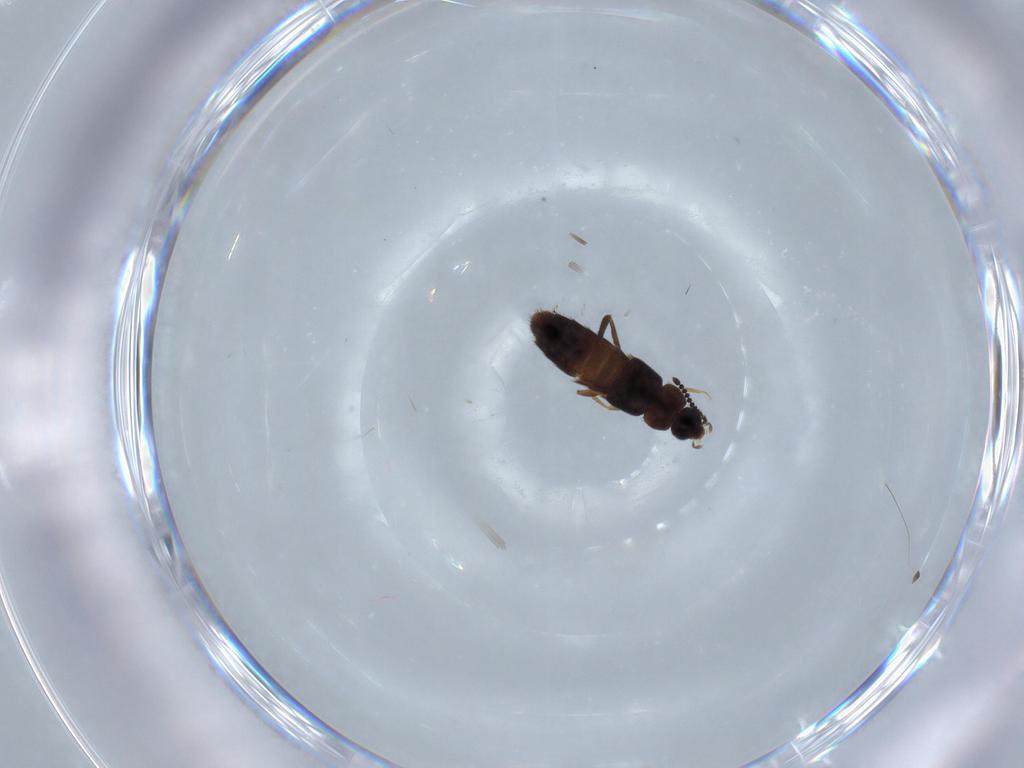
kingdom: Animalia
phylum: Arthropoda
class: Insecta
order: Coleoptera
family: Staphylinidae
